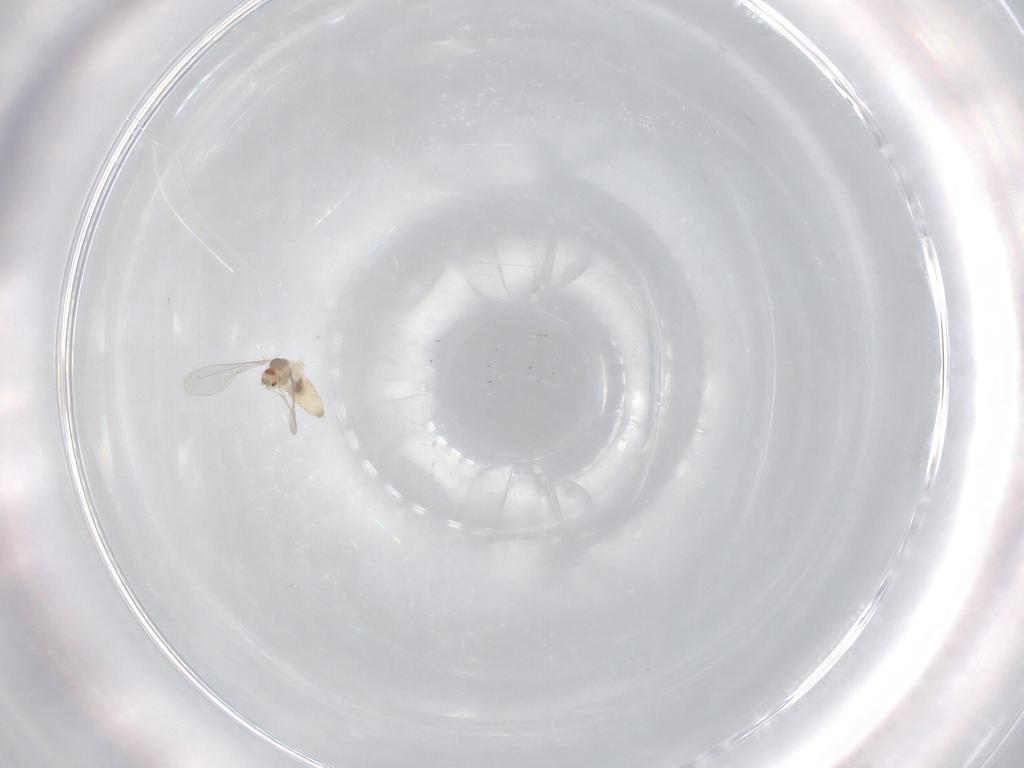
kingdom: Animalia
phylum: Arthropoda
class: Insecta
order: Diptera
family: Cecidomyiidae
